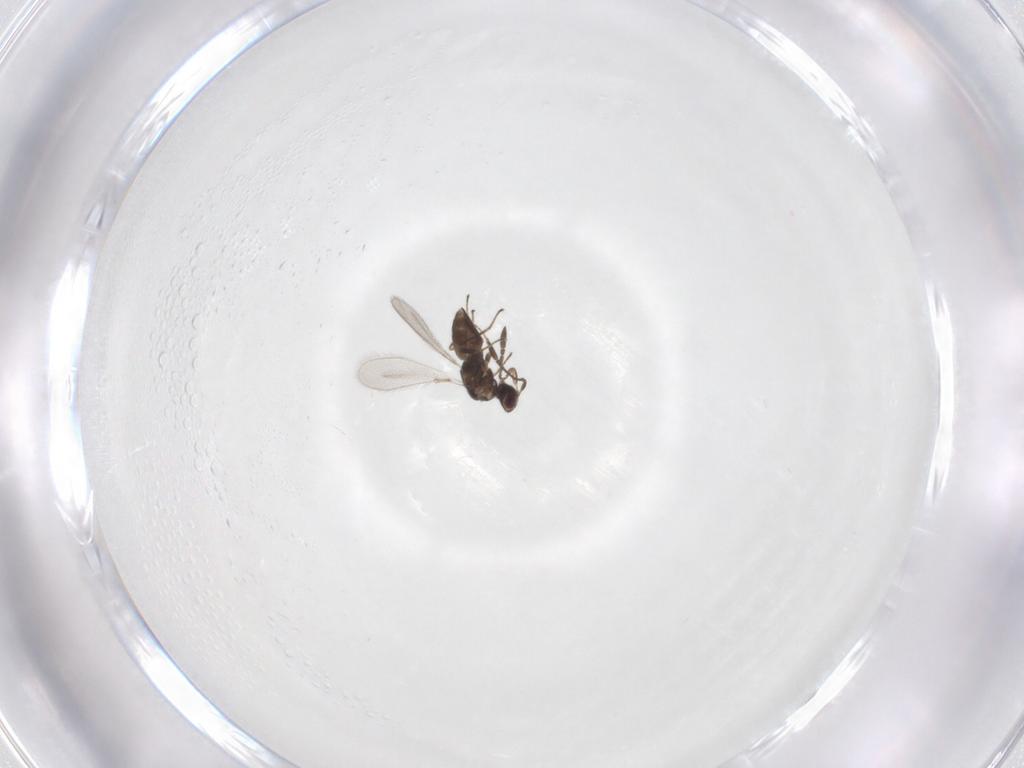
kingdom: Animalia
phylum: Arthropoda
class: Insecta
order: Hymenoptera
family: Mymaridae
